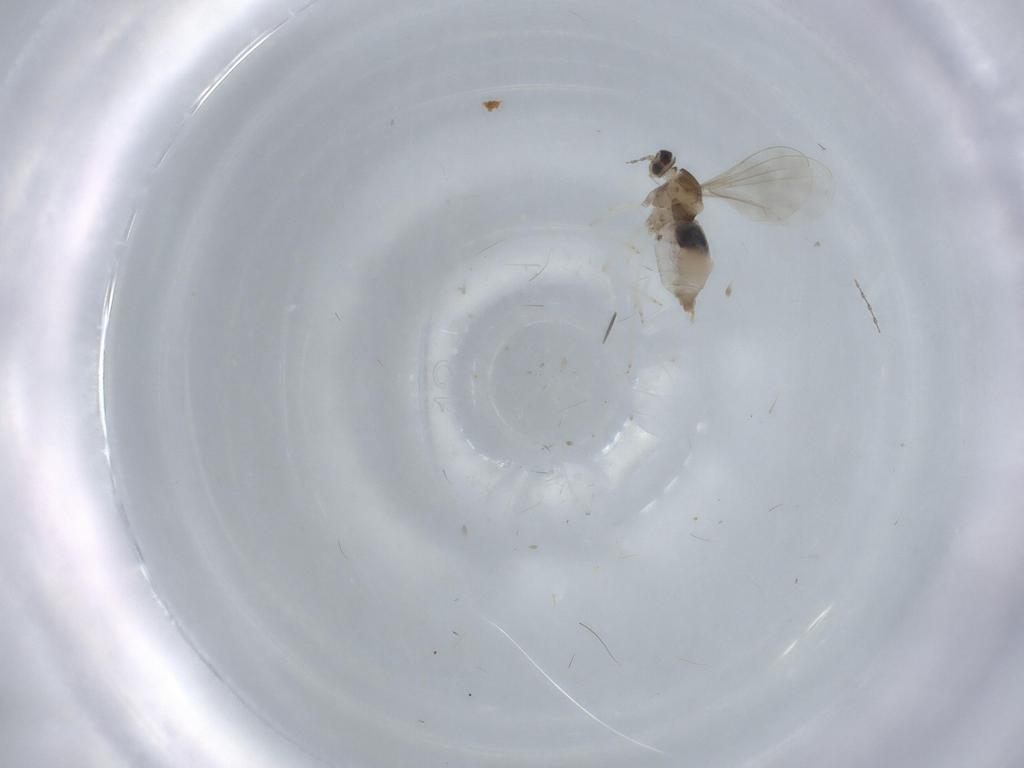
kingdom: Animalia
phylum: Arthropoda
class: Insecta
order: Diptera
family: Cecidomyiidae
